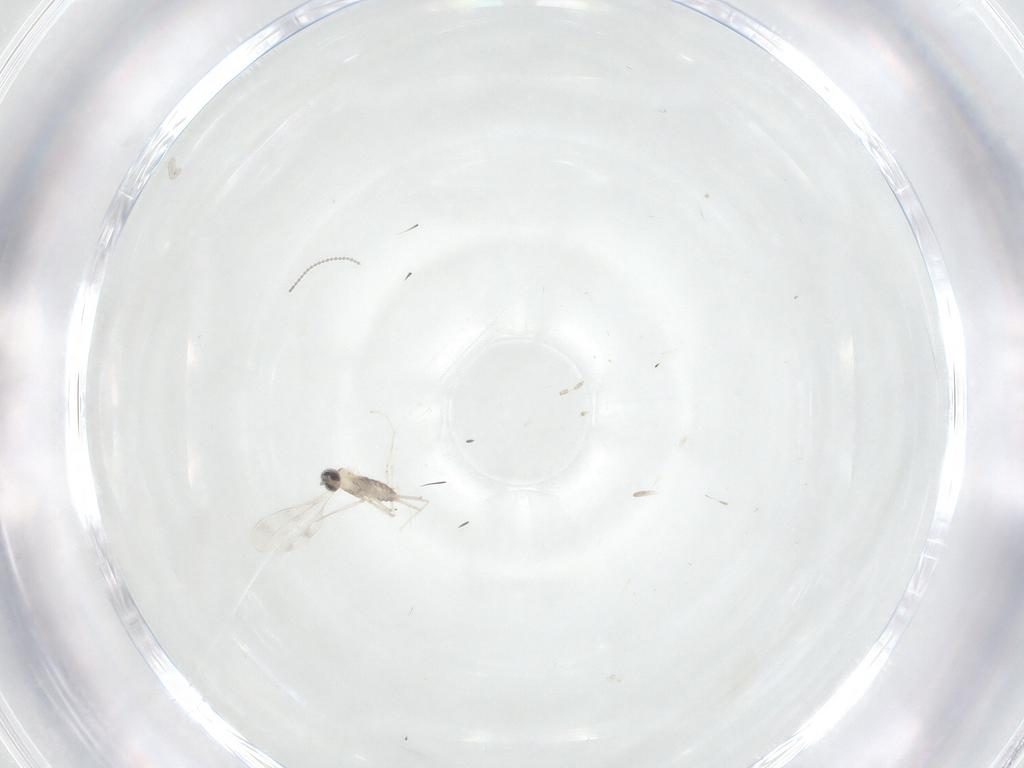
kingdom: Animalia
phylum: Arthropoda
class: Insecta
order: Diptera
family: Cecidomyiidae
